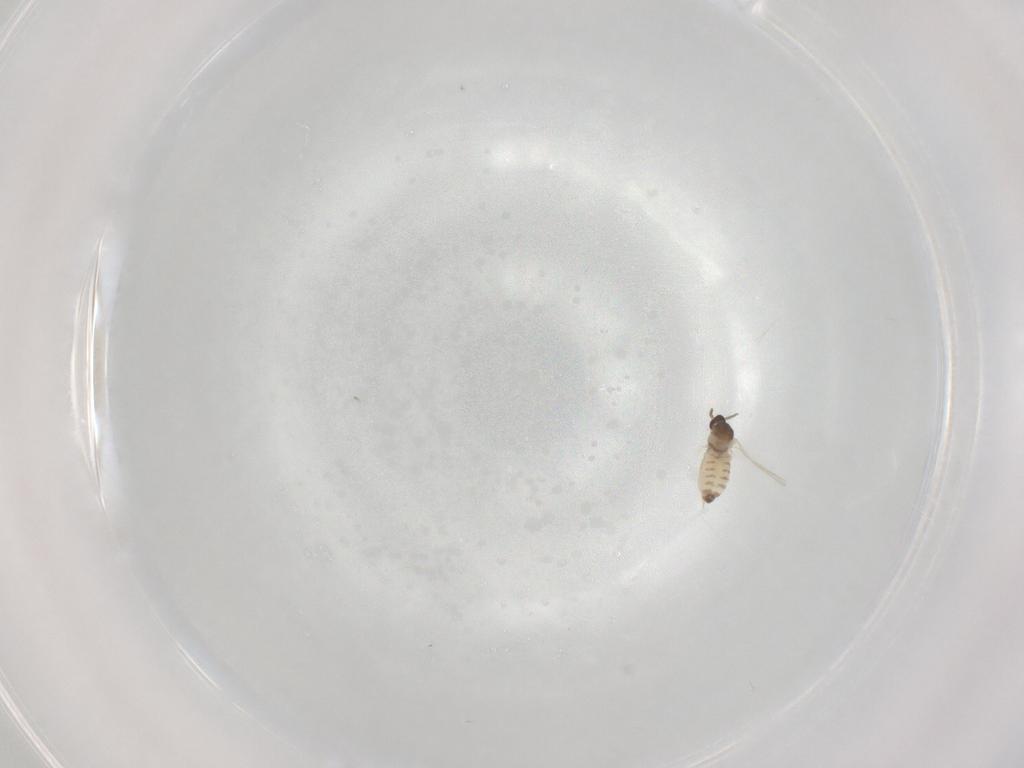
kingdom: Animalia
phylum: Arthropoda
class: Insecta
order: Diptera
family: Cecidomyiidae
